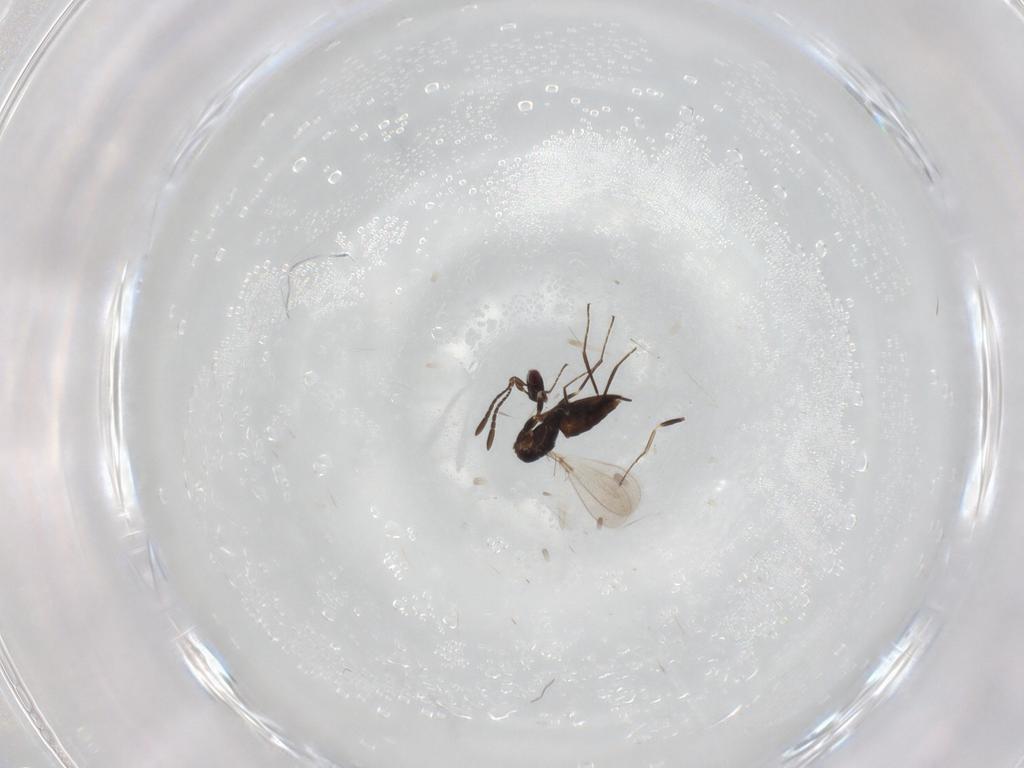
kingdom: Animalia
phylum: Arthropoda
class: Insecta
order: Hymenoptera
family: Mymaridae
